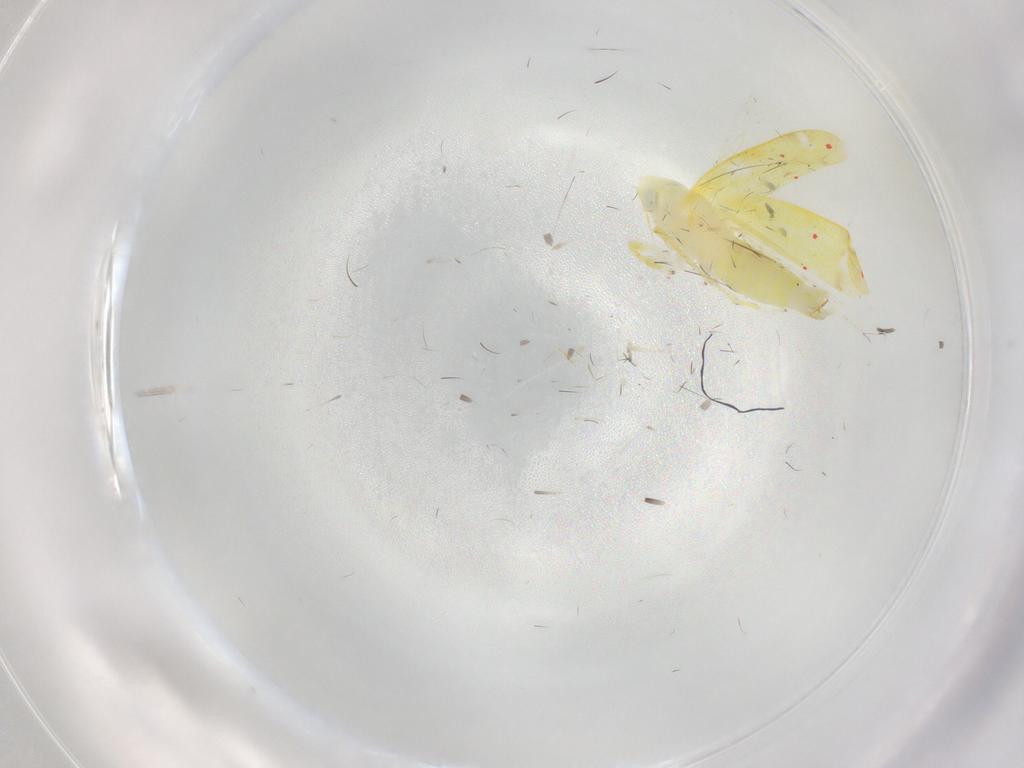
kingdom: Animalia
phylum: Arthropoda
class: Insecta
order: Hemiptera
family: Cicadellidae
